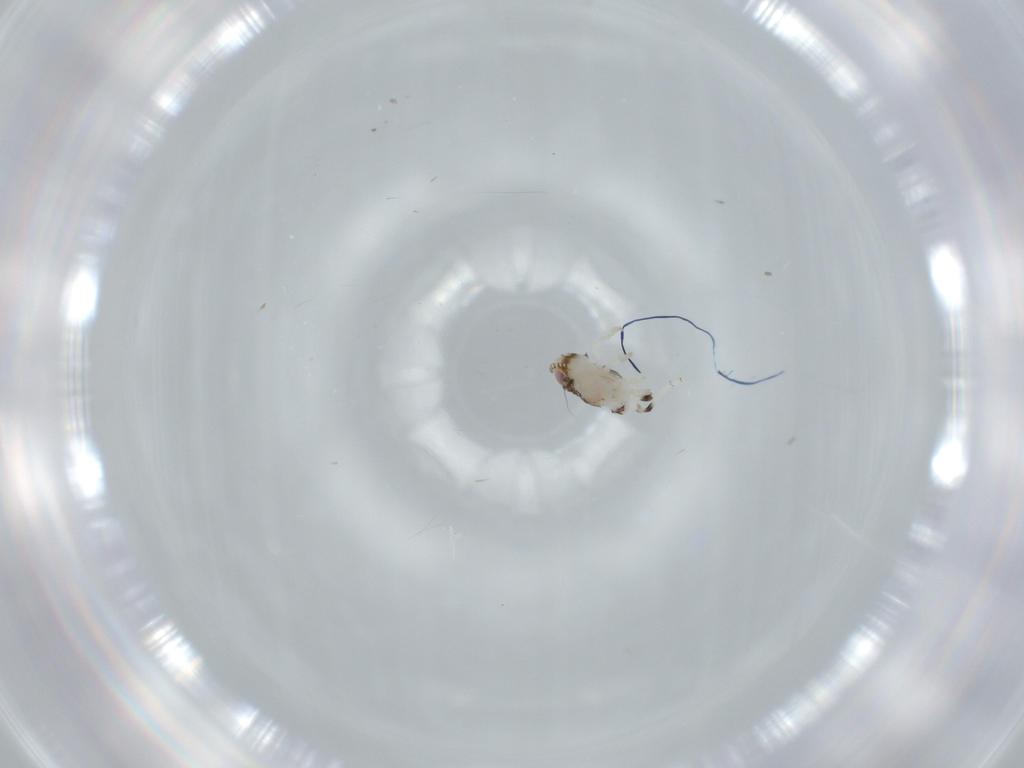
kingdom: Animalia
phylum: Arthropoda
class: Insecta
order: Hemiptera
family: Nogodinidae
